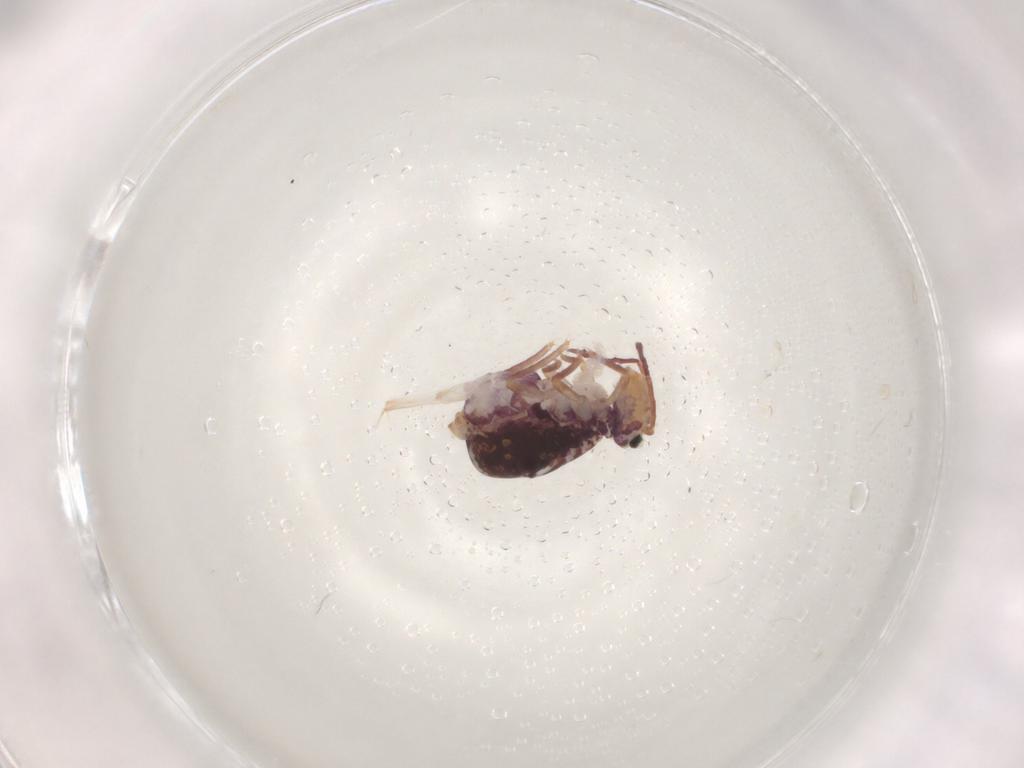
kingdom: Animalia
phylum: Arthropoda
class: Collembola
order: Symphypleona
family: Dicyrtomidae
